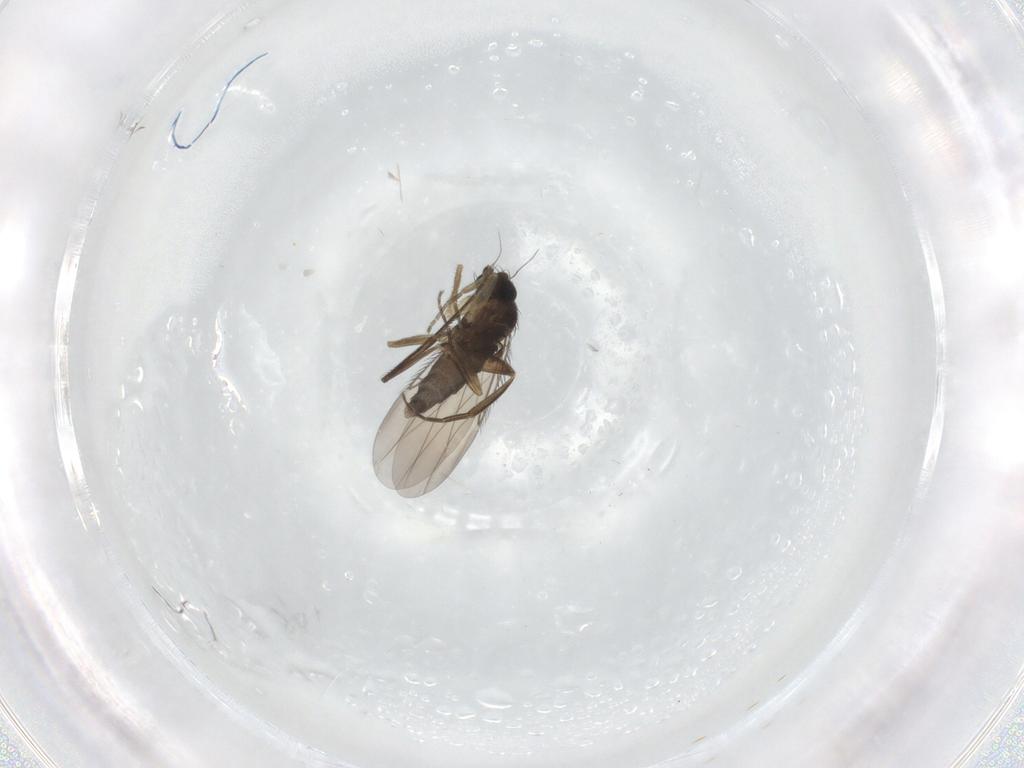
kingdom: Animalia
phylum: Arthropoda
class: Insecta
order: Diptera
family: Phoridae
